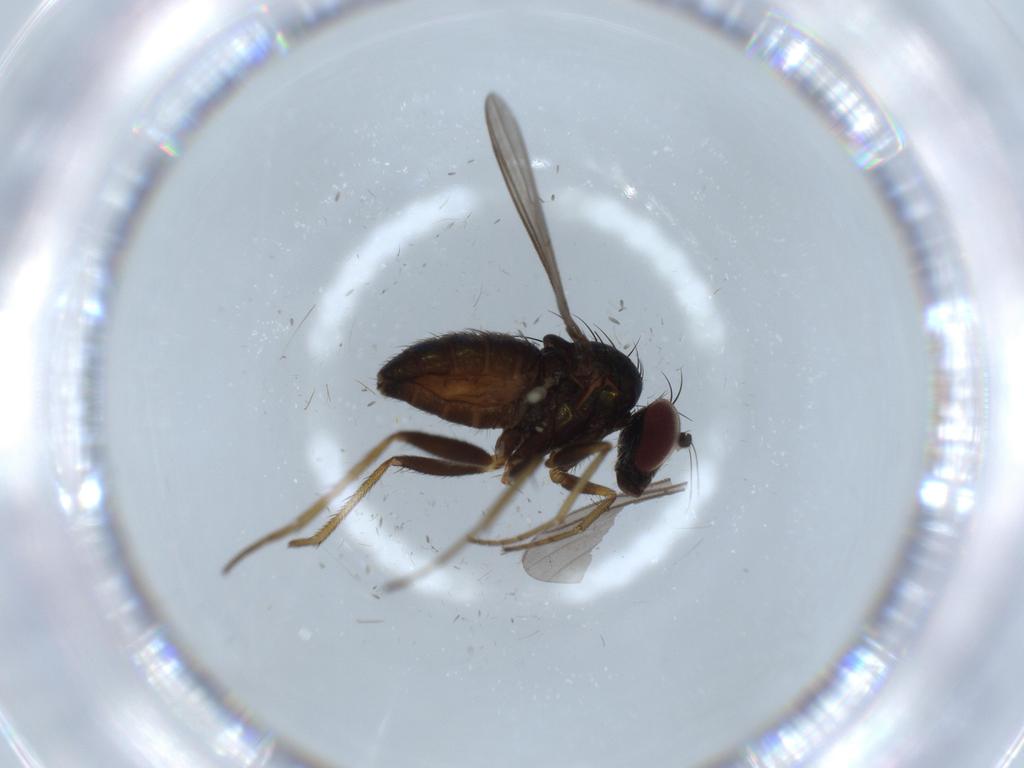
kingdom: Animalia
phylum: Arthropoda
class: Insecta
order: Diptera
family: Dolichopodidae
